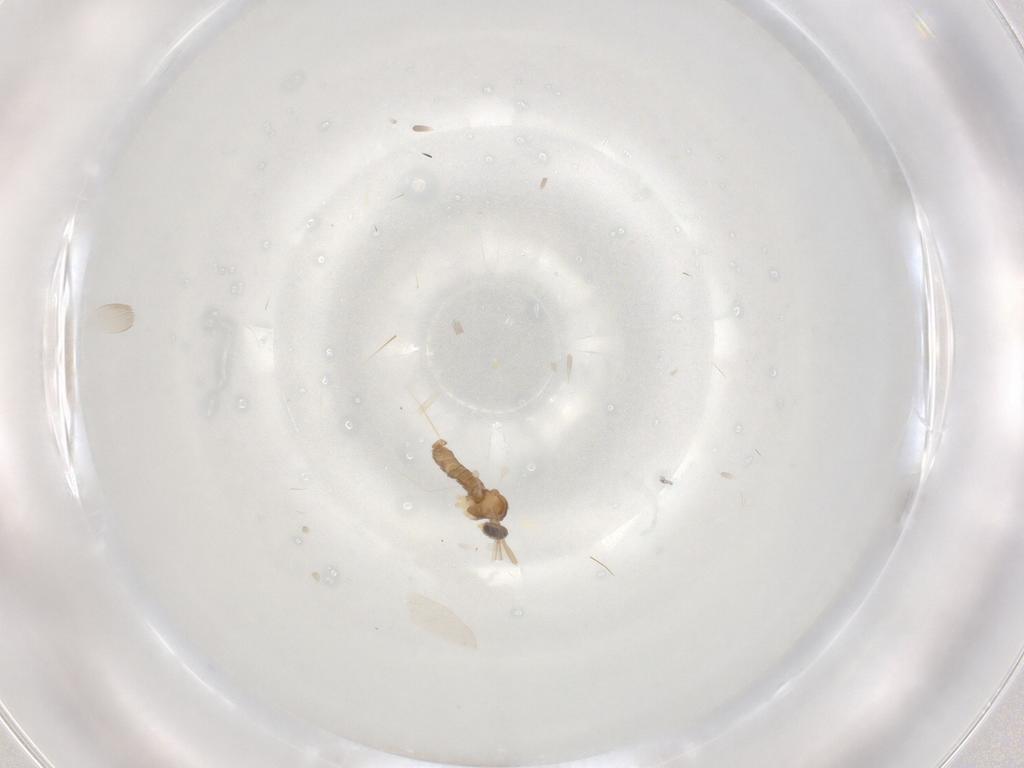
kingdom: Animalia
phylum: Arthropoda
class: Insecta
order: Diptera
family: Cecidomyiidae
